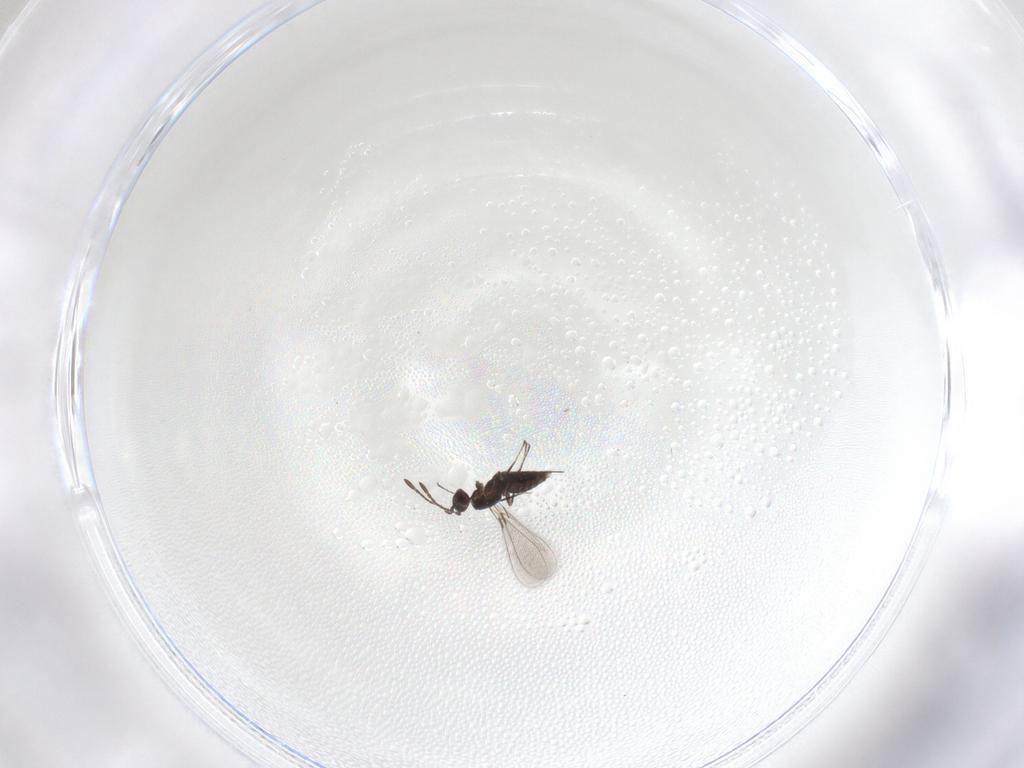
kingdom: Animalia
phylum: Arthropoda
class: Insecta
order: Hymenoptera
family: Mymaridae
